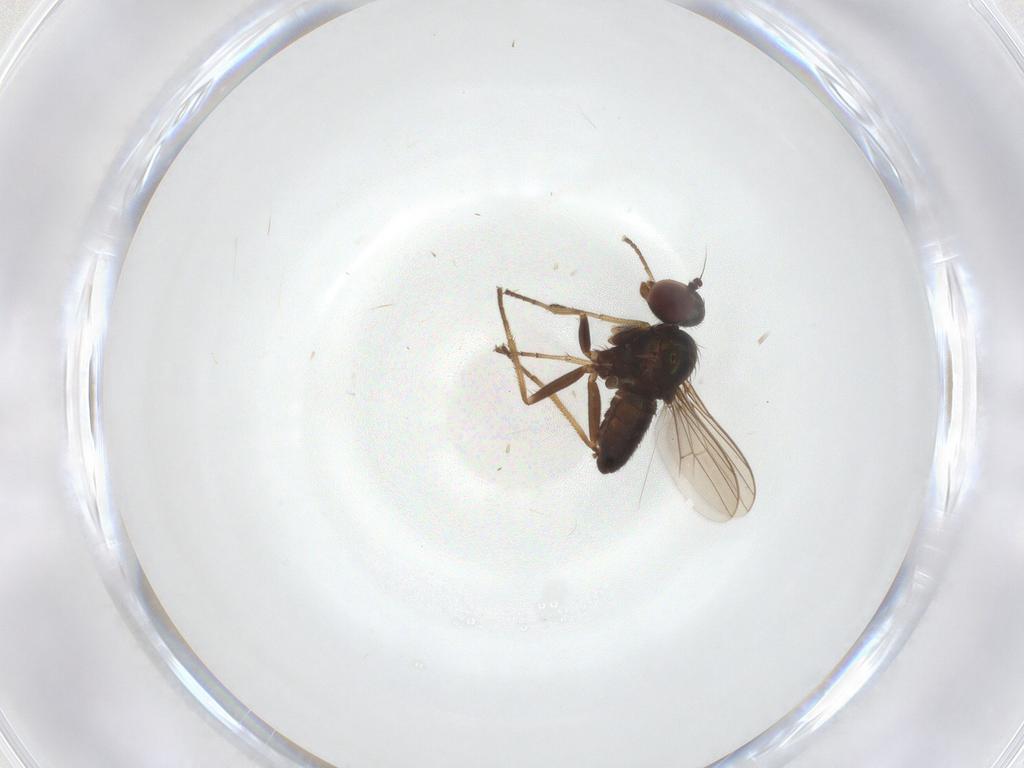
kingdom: Animalia
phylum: Arthropoda
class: Insecta
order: Diptera
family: Dolichopodidae
